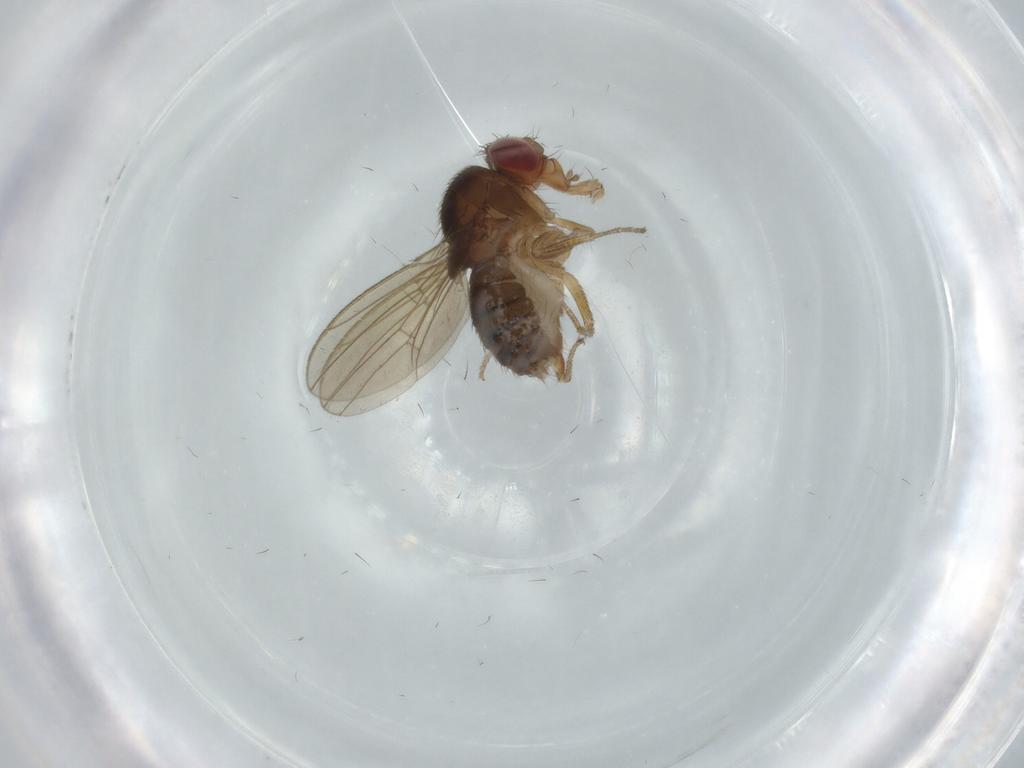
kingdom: Animalia
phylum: Arthropoda
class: Insecta
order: Diptera
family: Drosophilidae
